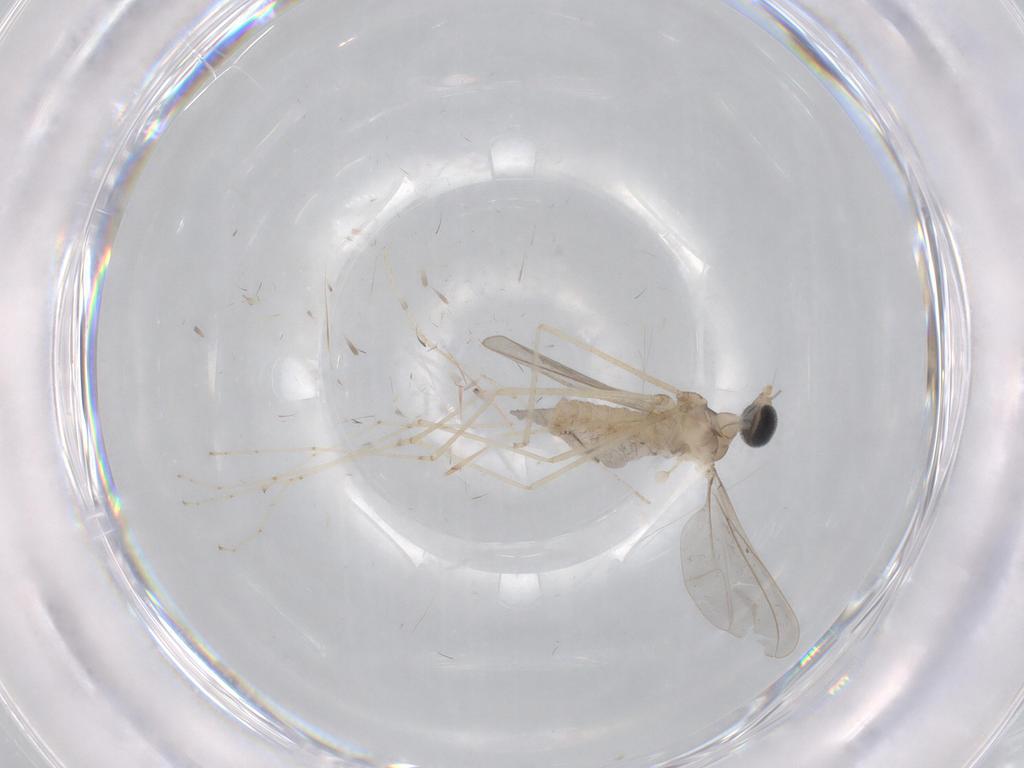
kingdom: Animalia
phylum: Arthropoda
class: Insecta
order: Diptera
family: Cecidomyiidae
